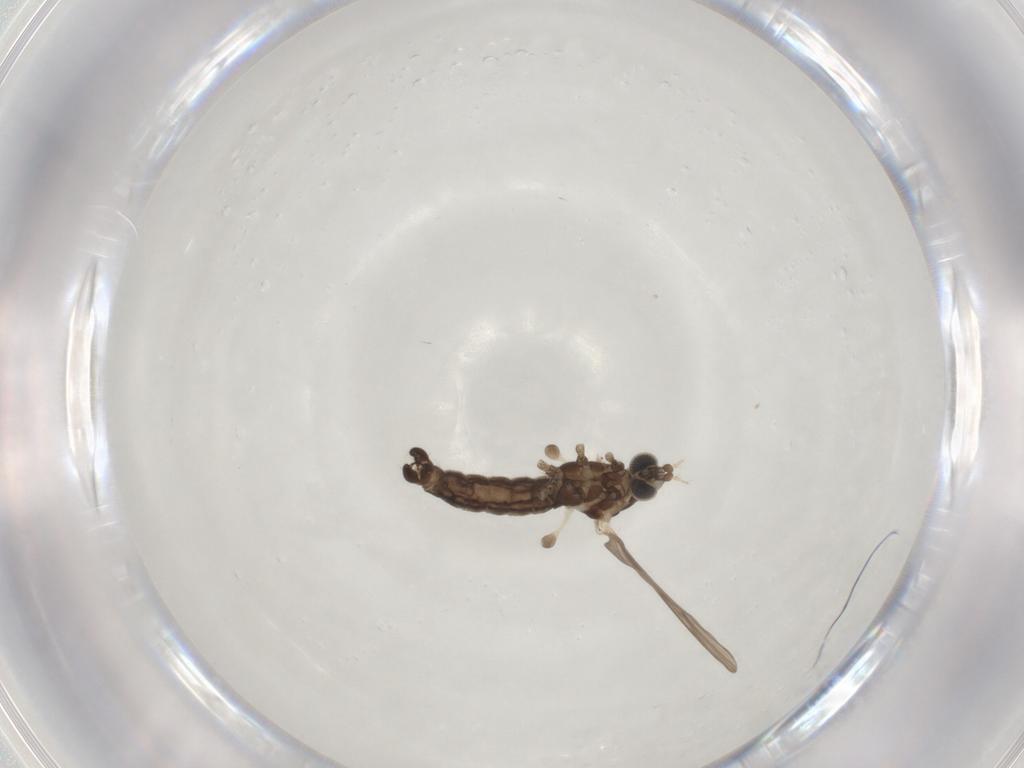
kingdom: Animalia
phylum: Arthropoda
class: Insecta
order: Diptera
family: Limoniidae
